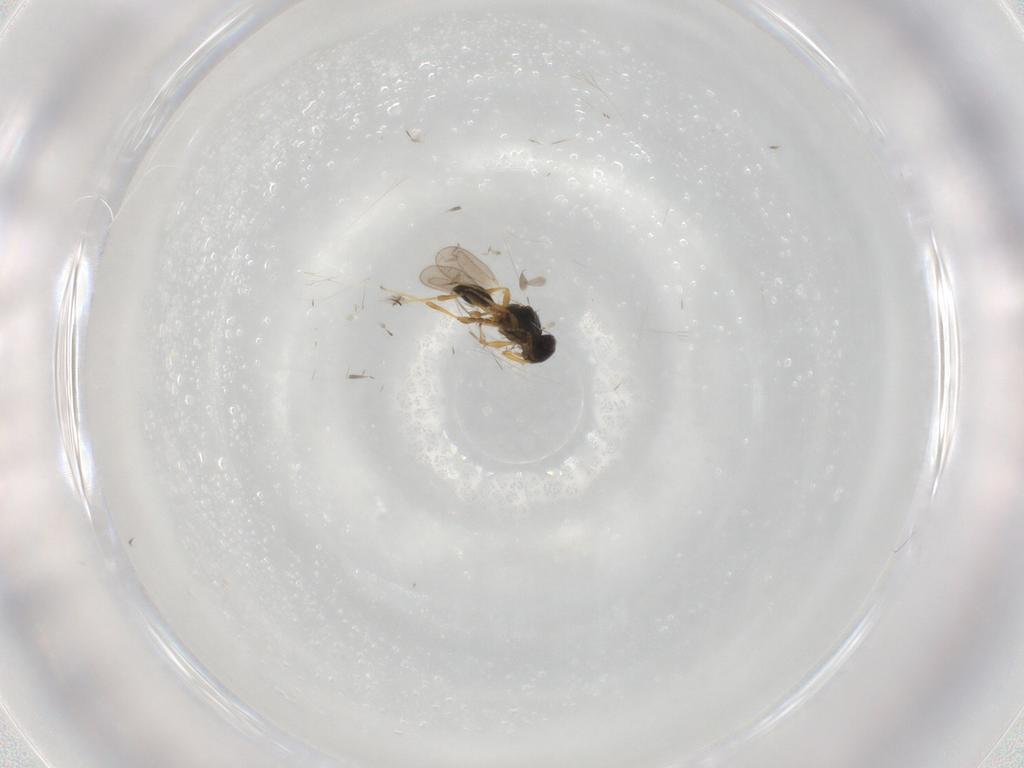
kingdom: Animalia
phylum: Arthropoda
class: Insecta
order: Hymenoptera
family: Platygastridae
